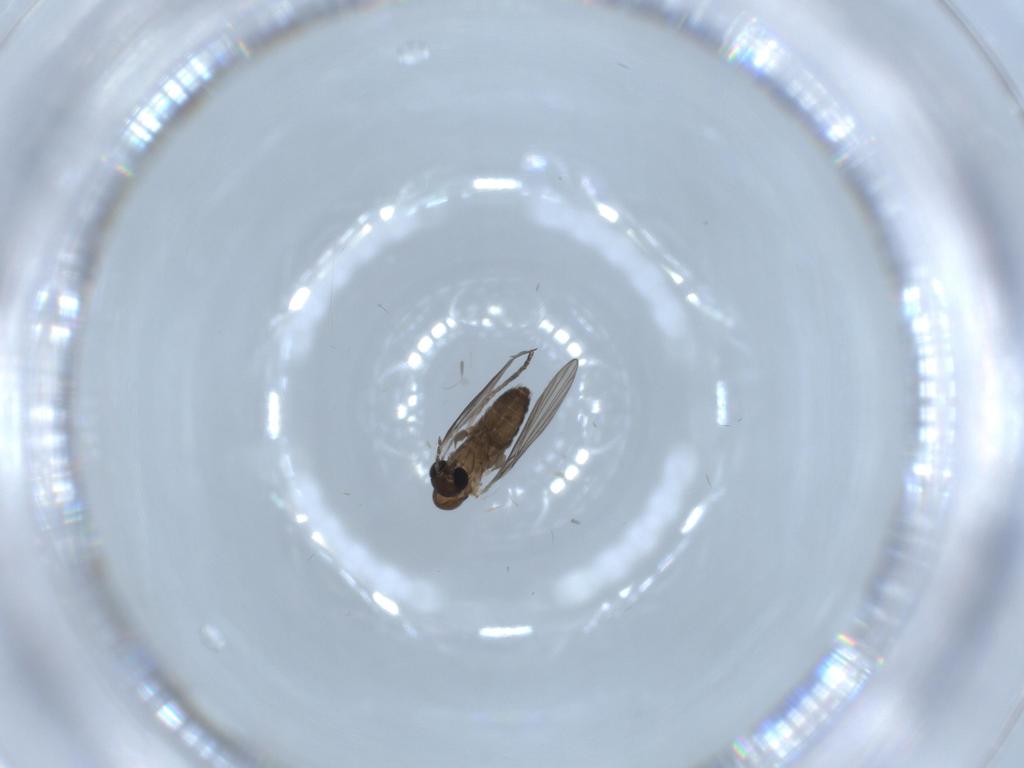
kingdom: Animalia
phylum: Arthropoda
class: Insecta
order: Diptera
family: Psychodidae
